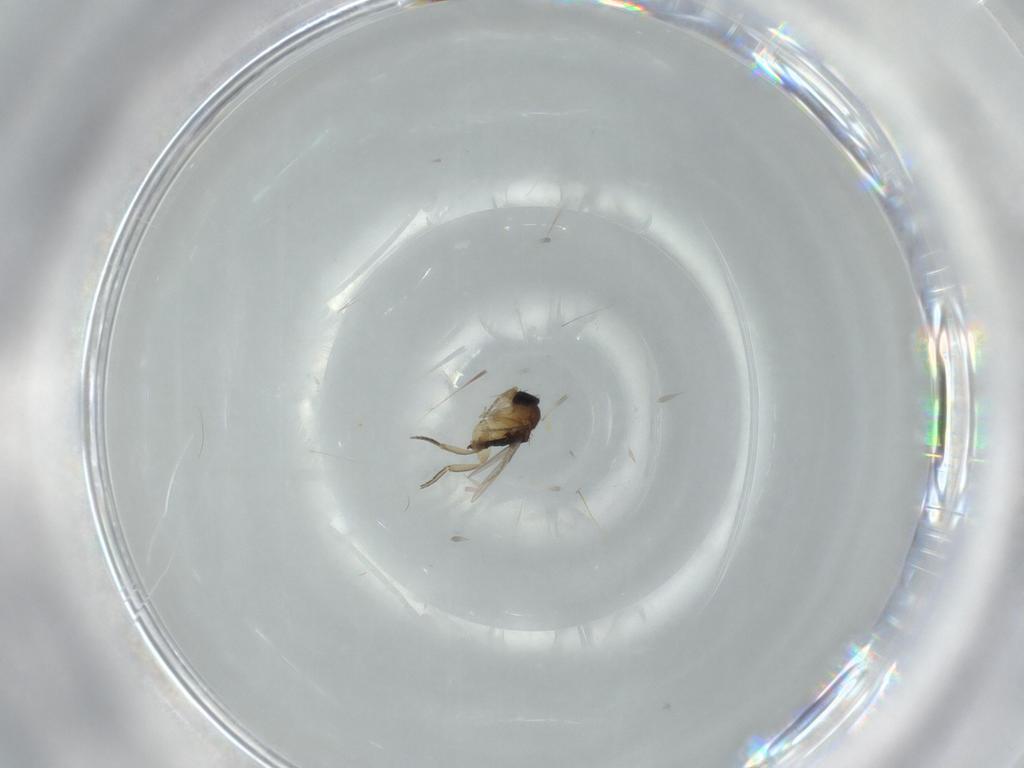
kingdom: Animalia
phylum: Arthropoda
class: Insecta
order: Diptera
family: Phoridae
